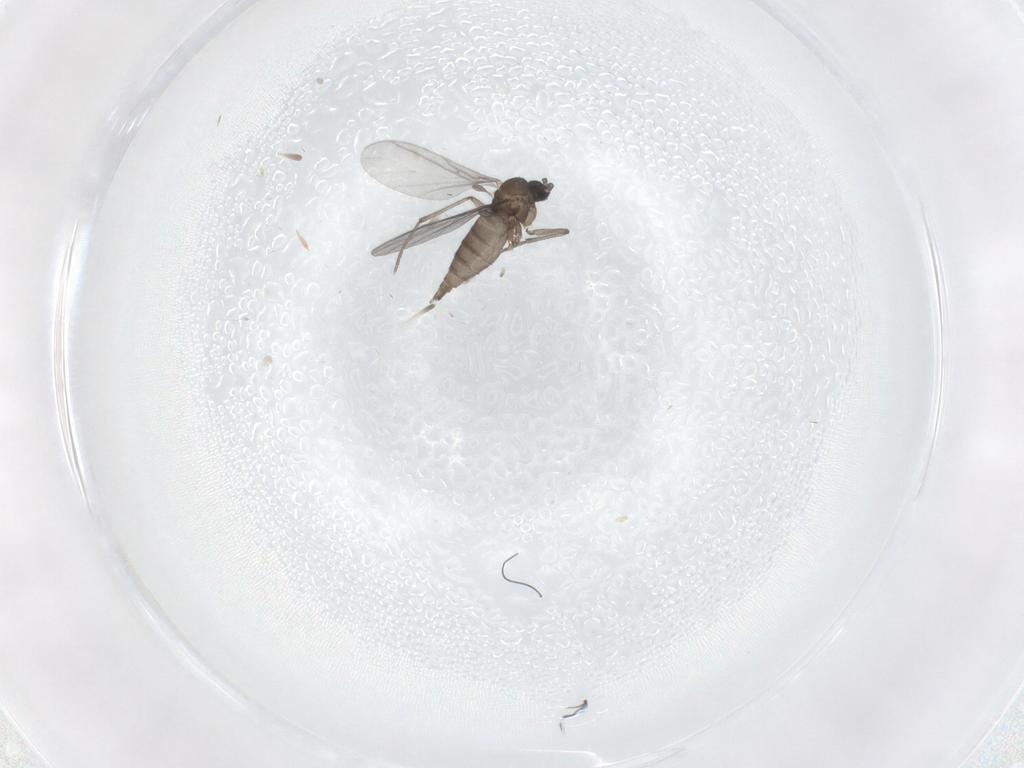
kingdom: Animalia
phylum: Arthropoda
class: Insecta
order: Diptera
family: Sciaridae
